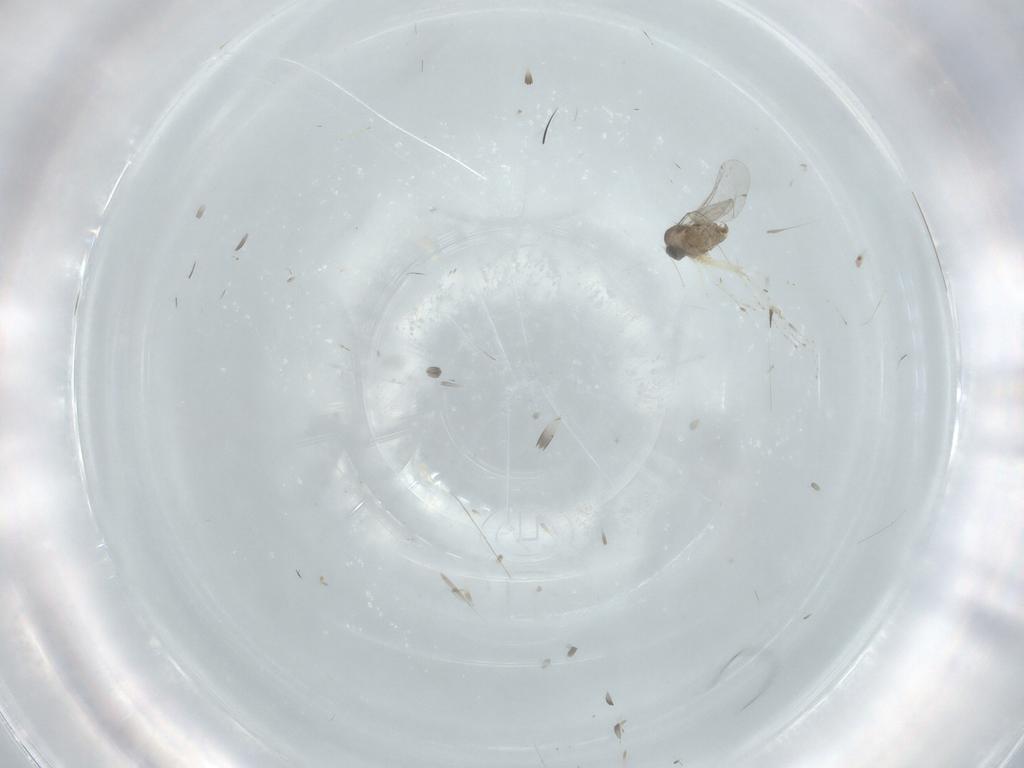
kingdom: Animalia
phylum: Arthropoda
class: Insecta
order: Diptera
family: Cecidomyiidae
